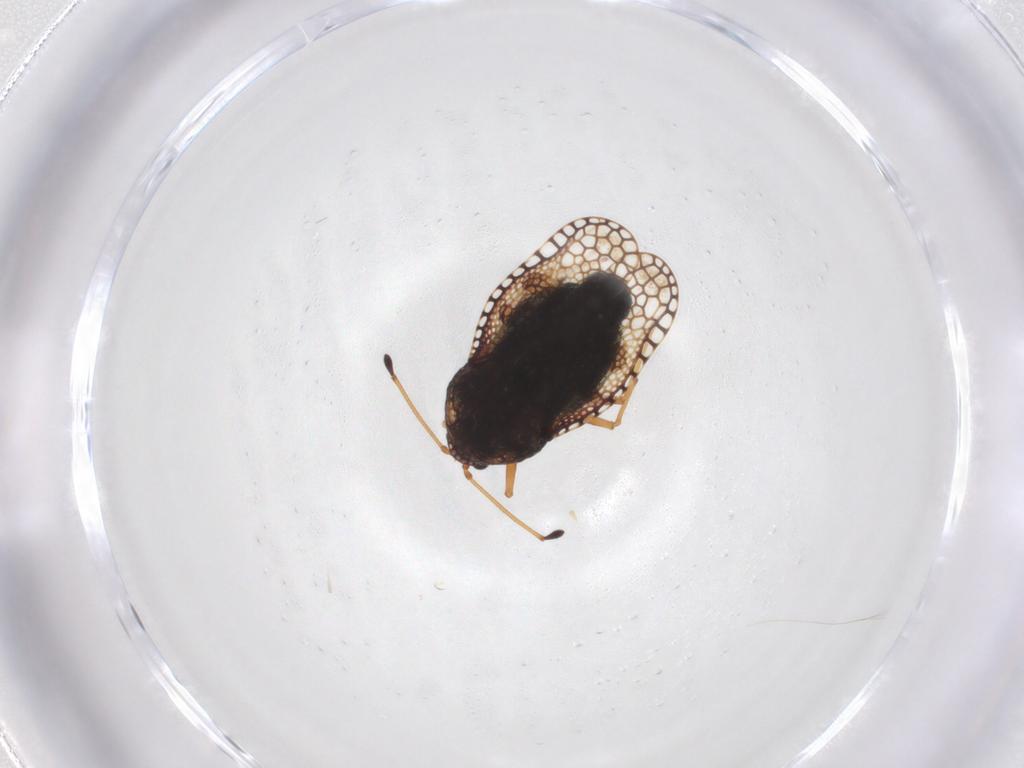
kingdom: Animalia
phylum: Arthropoda
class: Insecta
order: Hemiptera
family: Tingidae
